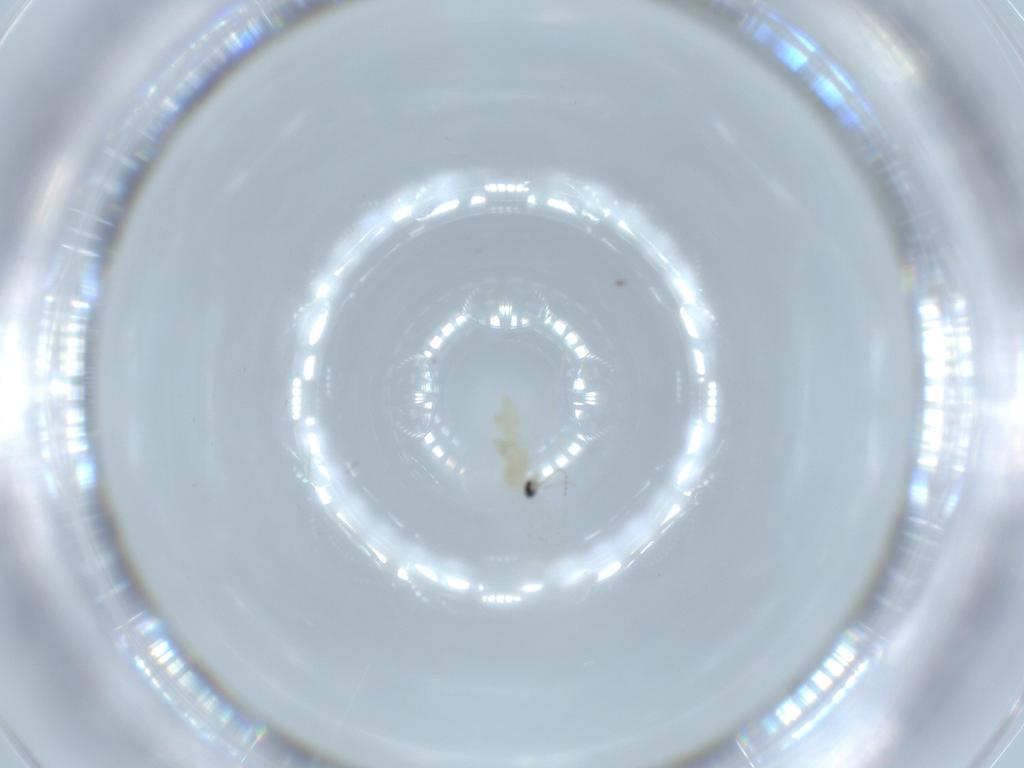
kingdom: Animalia
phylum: Arthropoda
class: Insecta
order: Diptera
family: Cecidomyiidae
